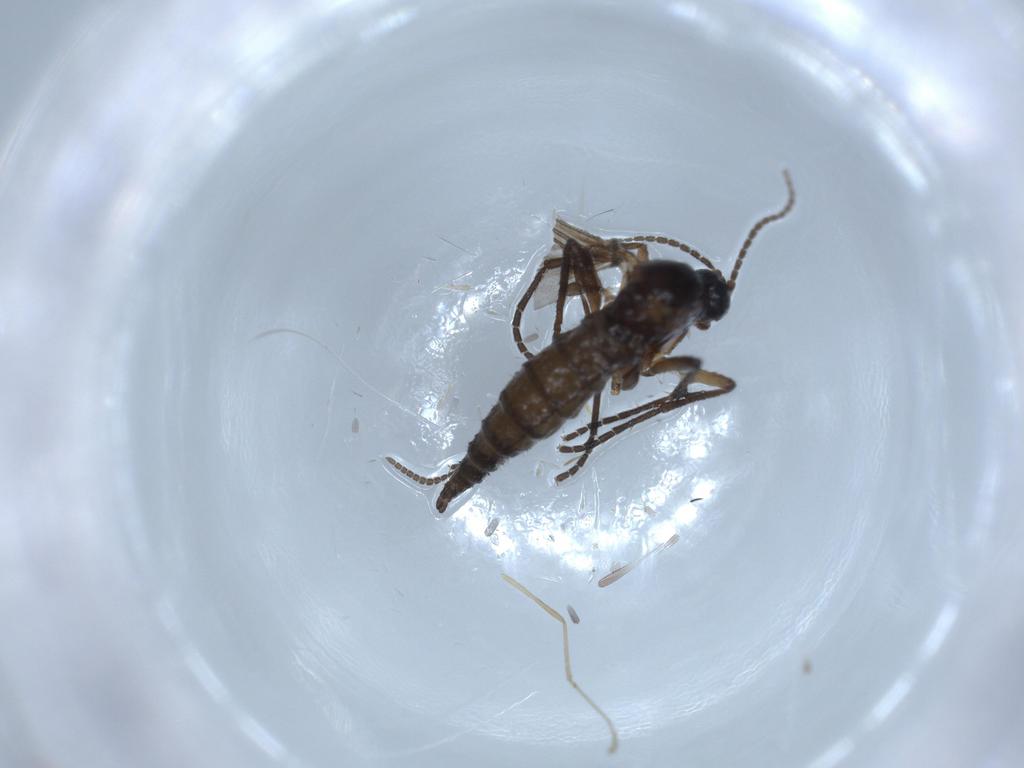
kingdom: Animalia
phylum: Arthropoda
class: Insecta
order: Diptera
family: Sciaridae
